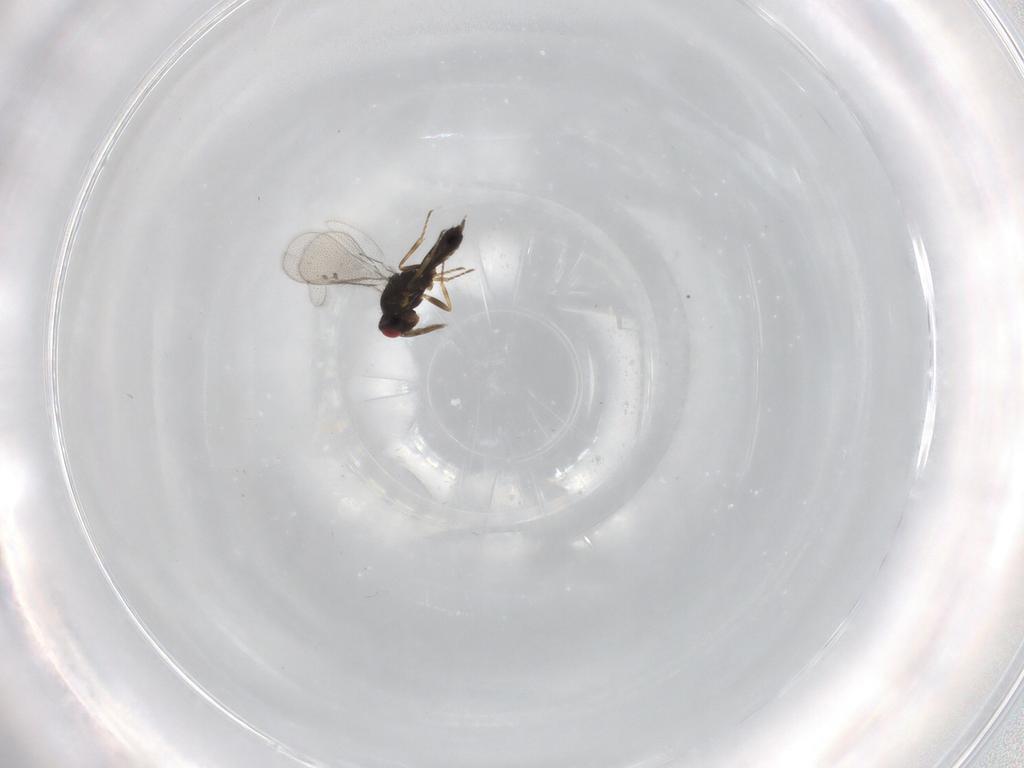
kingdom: Animalia
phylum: Arthropoda
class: Insecta
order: Hymenoptera
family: Eulophidae
